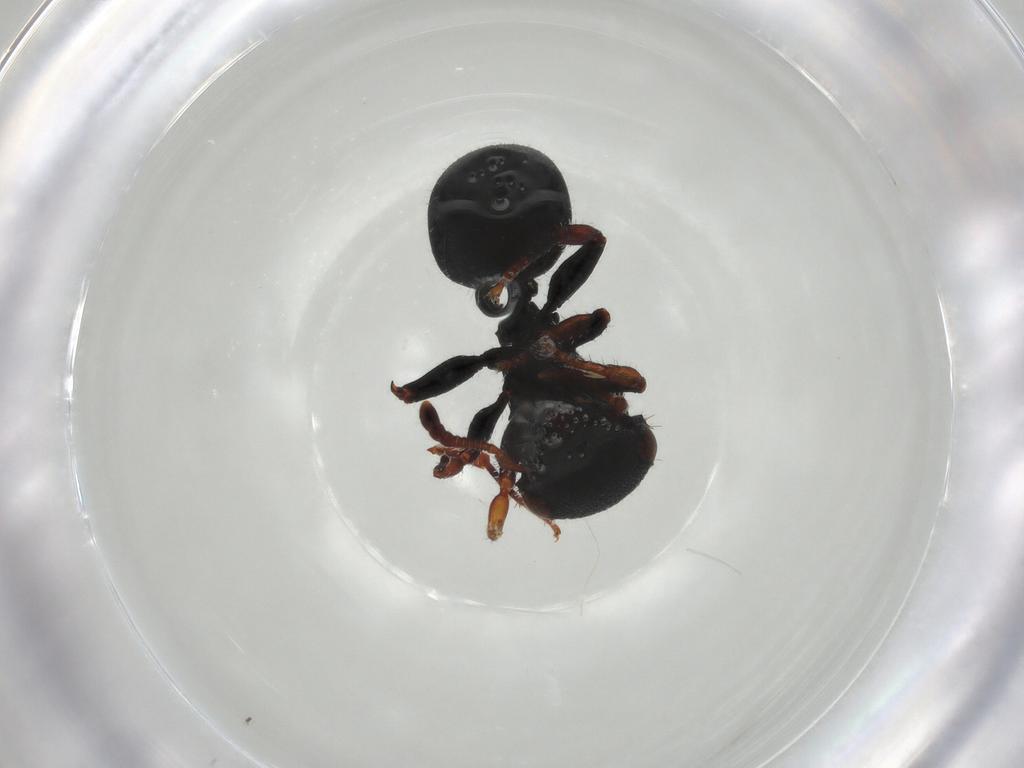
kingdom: Animalia
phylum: Arthropoda
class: Insecta
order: Hymenoptera
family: Formicidae
